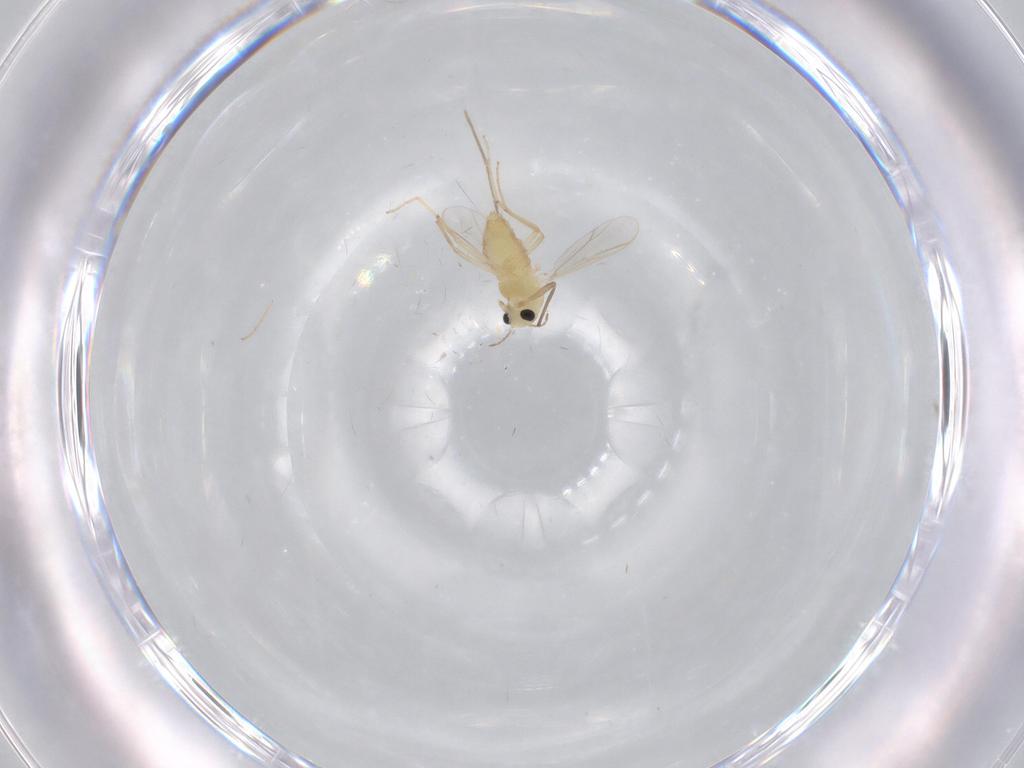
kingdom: Animalia
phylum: Arthropoda
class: Insecta
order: Diptera
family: Chironomidae
